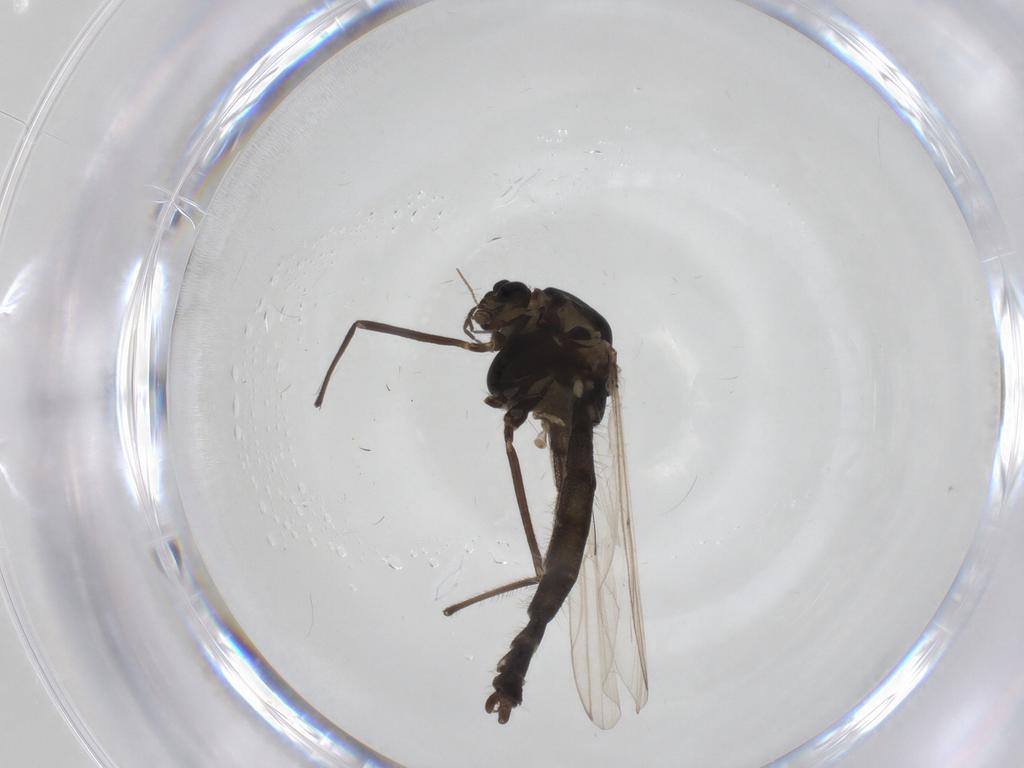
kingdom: Animalia
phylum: Arthropoda
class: Insecta
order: Diptera
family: Chironomidae
